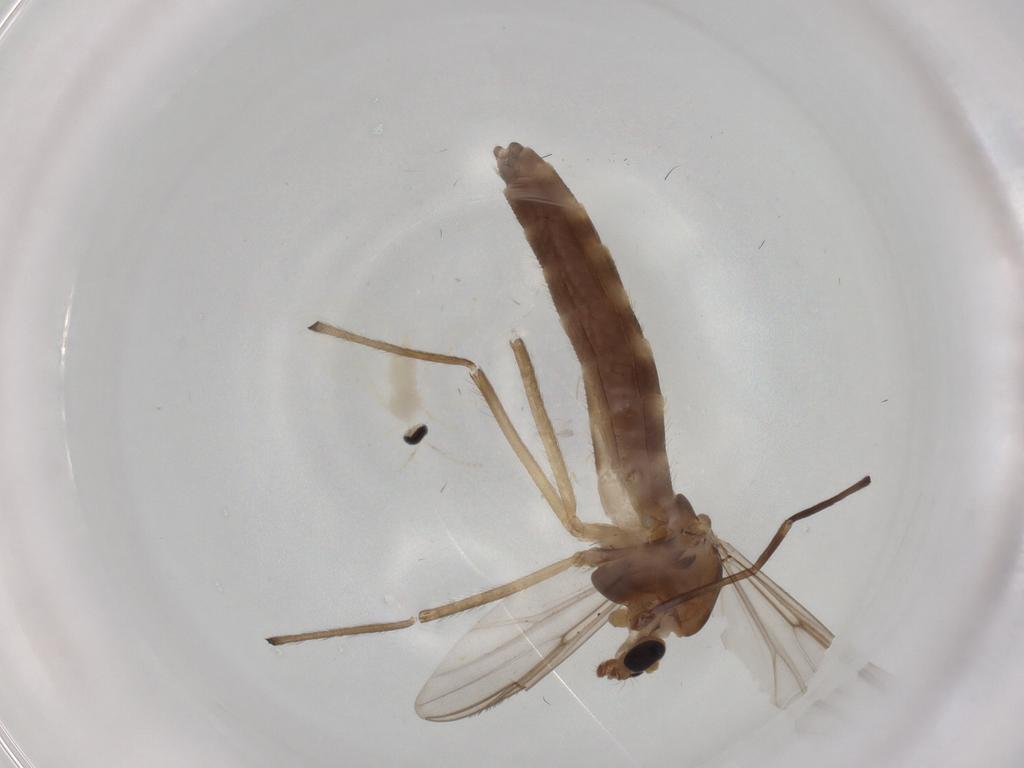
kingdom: Animalia
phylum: Arthropoda
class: Insecta
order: Diptera
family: Chironomidae
